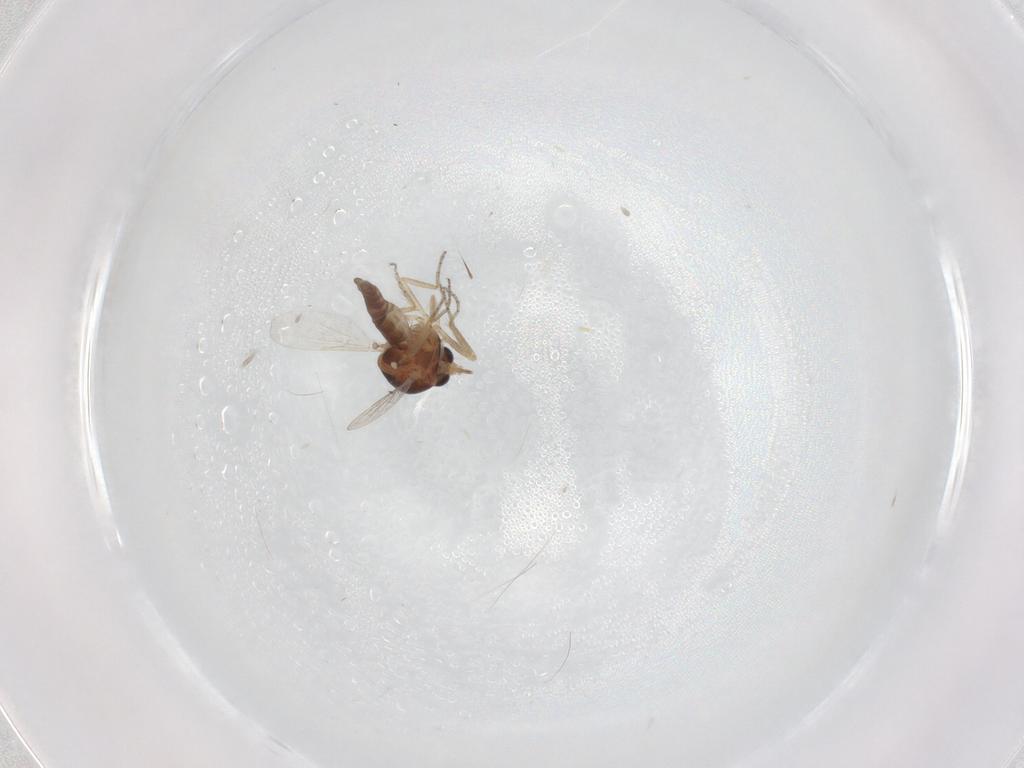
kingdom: Animalia
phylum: Arthropoda
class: Insecta
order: Diptera
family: Ceratopogonidae
